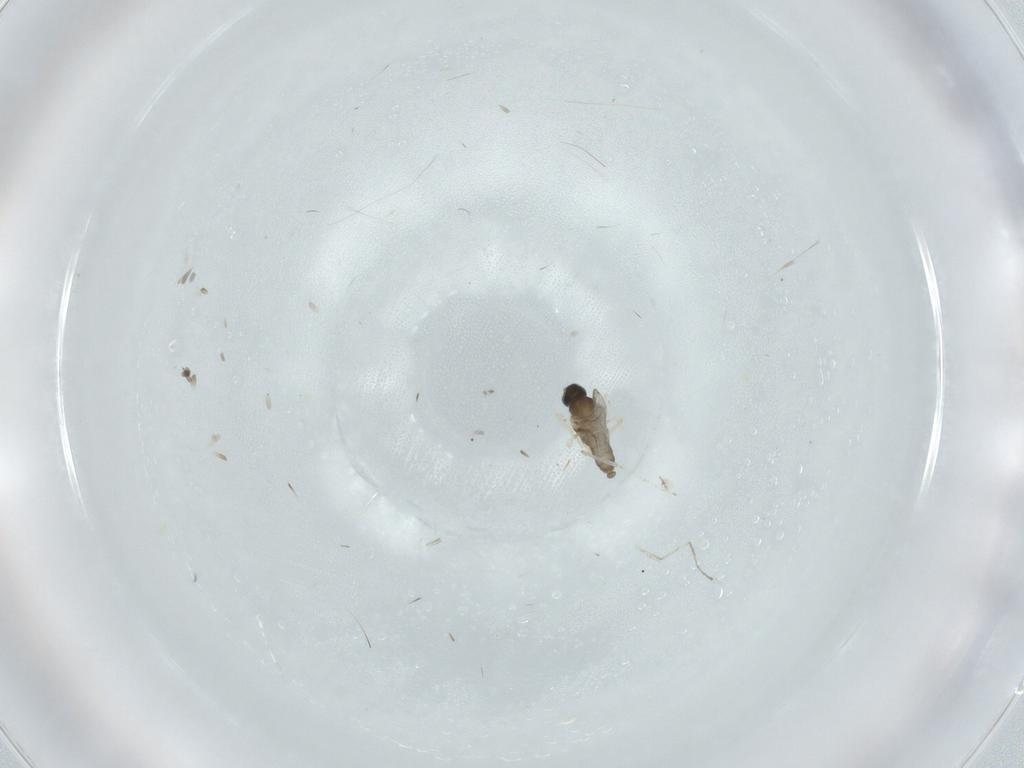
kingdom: Animalia
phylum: Arthropoda
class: Insecta
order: Diptera
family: Cecidomyiidae
